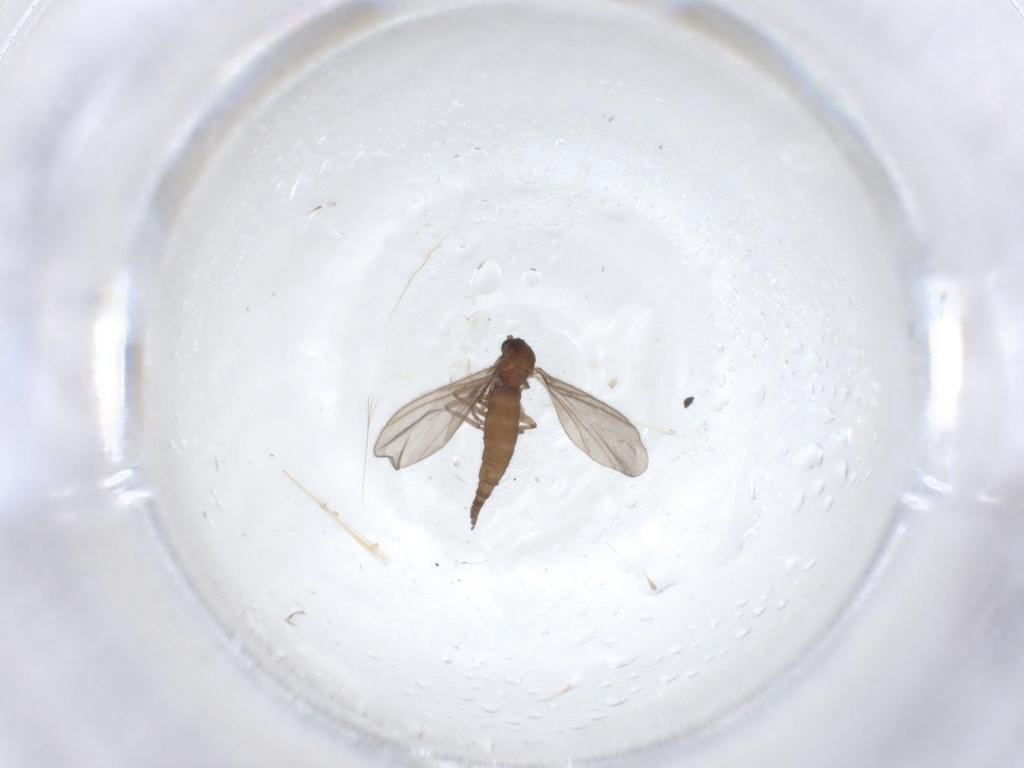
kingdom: Animalia
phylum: Arthropoda
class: Insecta
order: Diptera
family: Sciaridae
